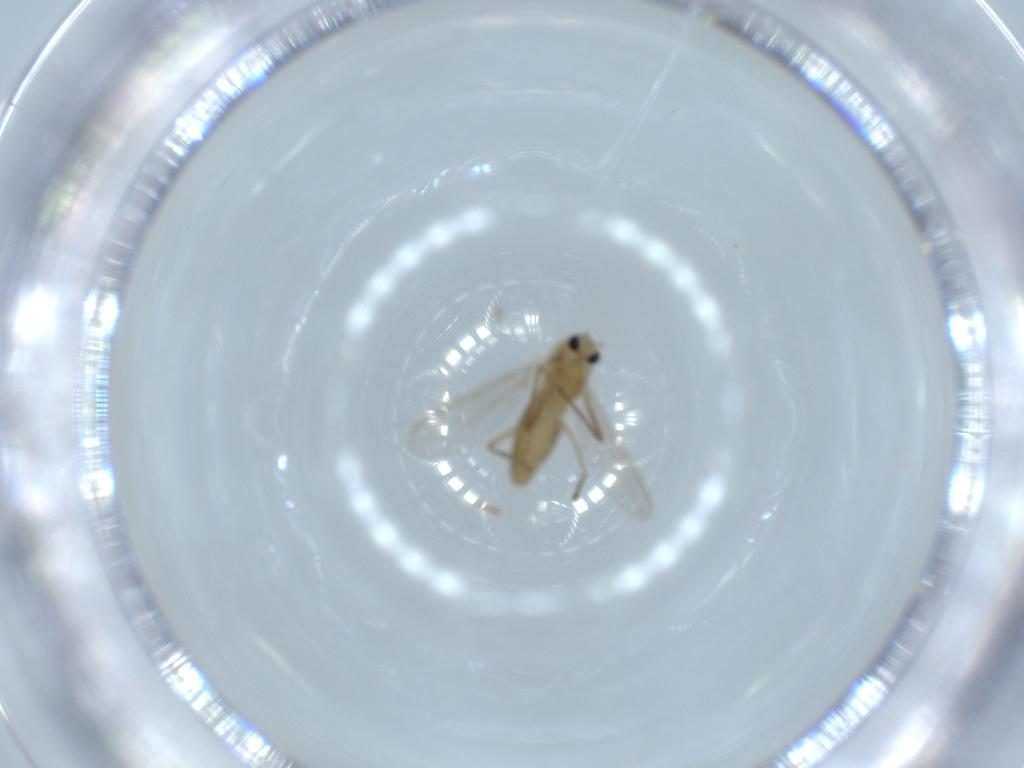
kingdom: Animalia
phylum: Arthropoda
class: Insecta
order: Diptera
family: Chironomidae
